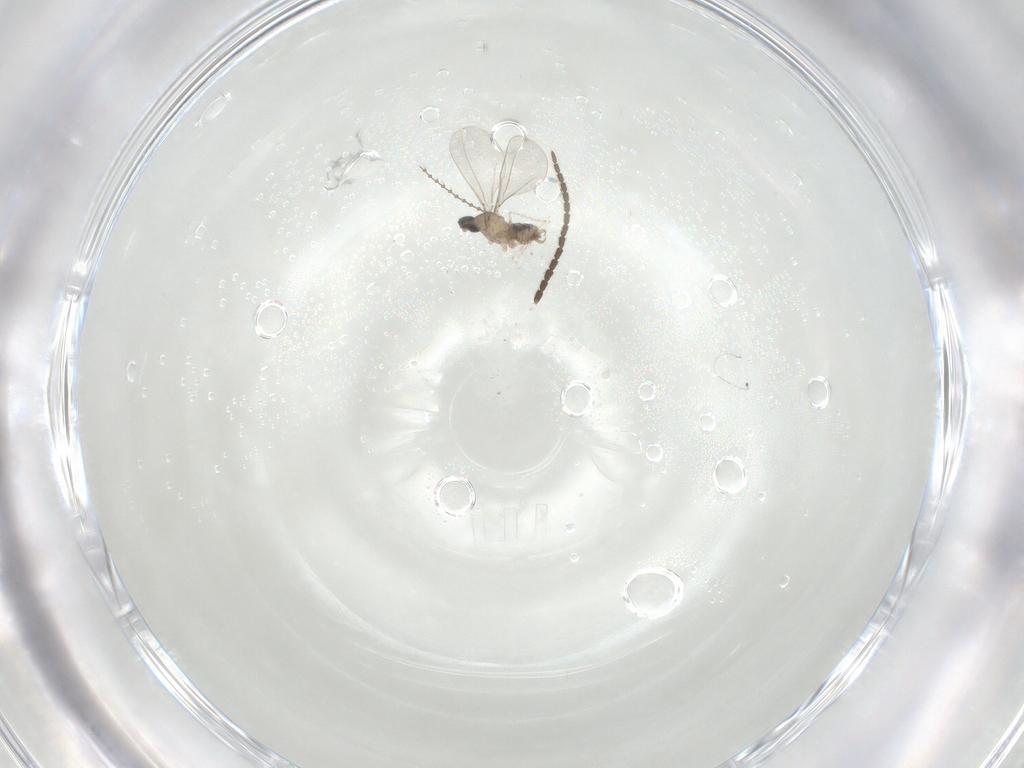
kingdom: Animalia
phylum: Arthropoda
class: Insecta
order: Diptera
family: Sciaridae
